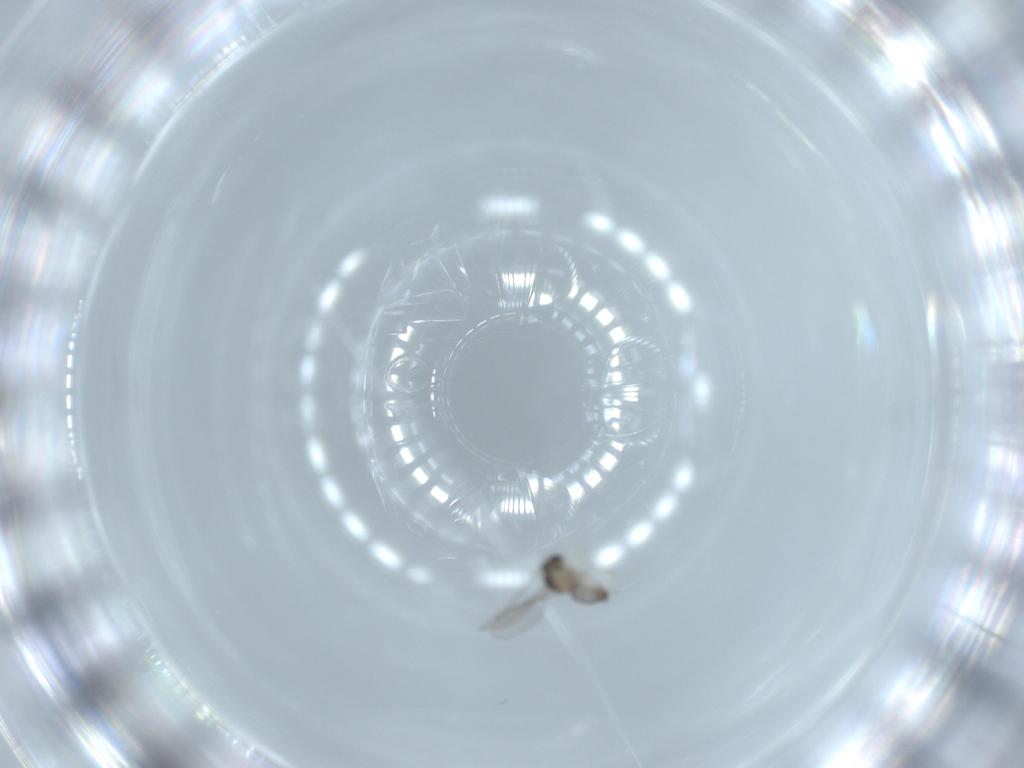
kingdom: Animalia
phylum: Arthropoda
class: Insecta
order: Diptera
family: Cecidomyiidae
